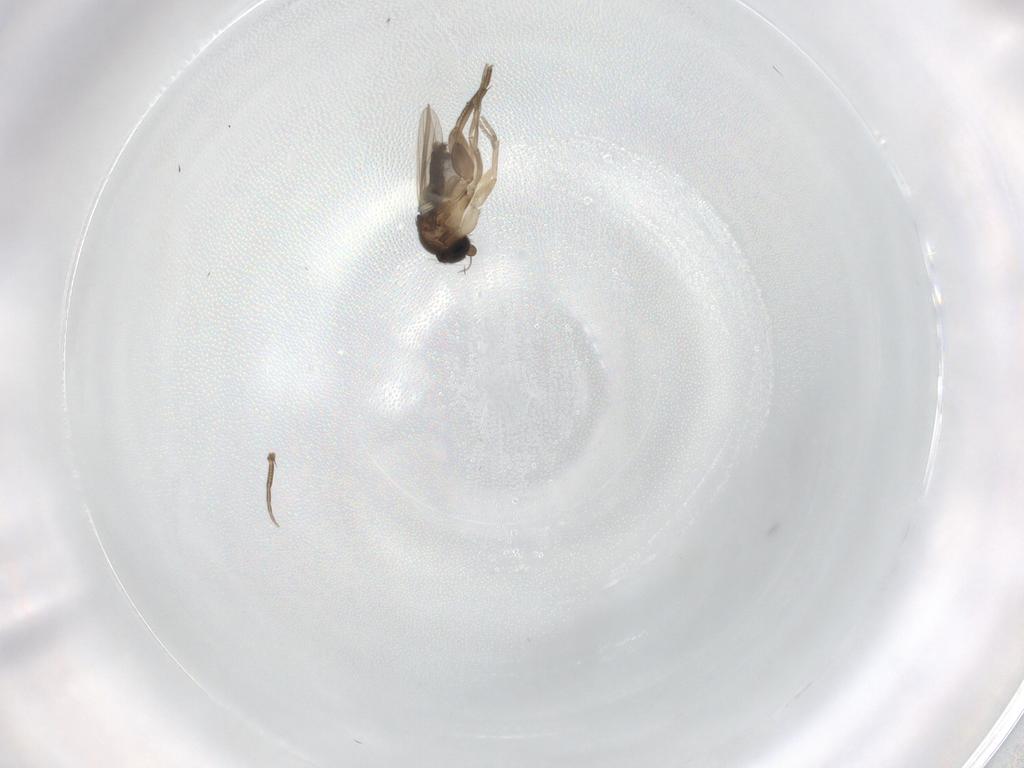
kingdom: Animalia
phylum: Arthropoda
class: Insecta
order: Diptera
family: Phoridae
